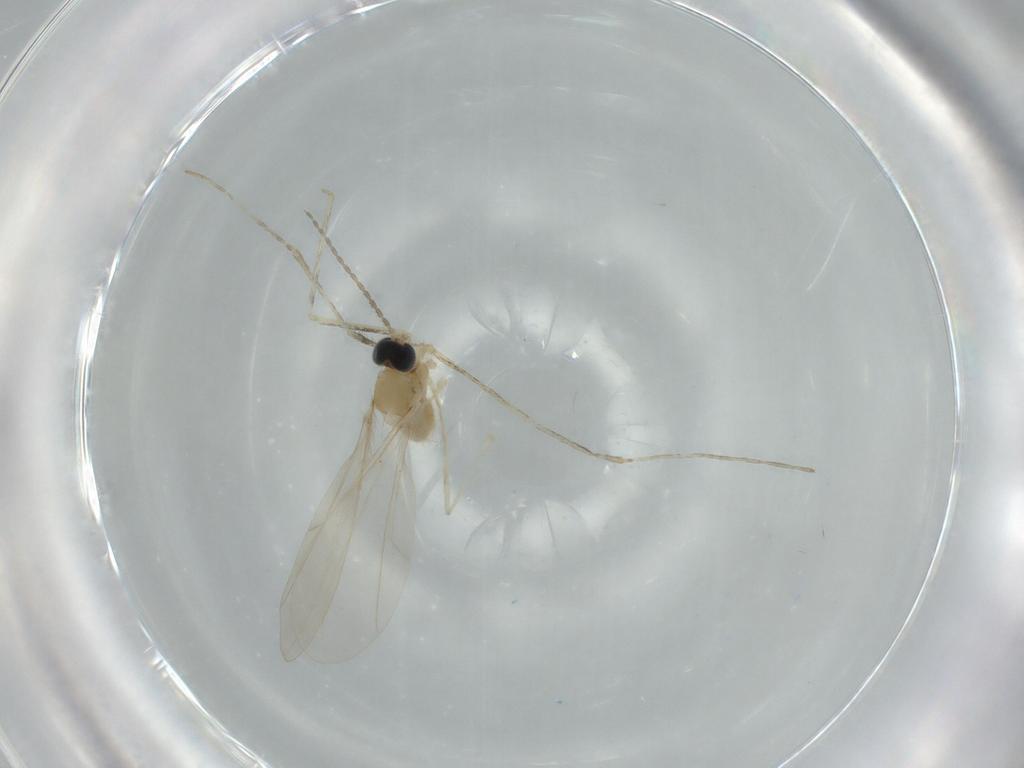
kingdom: Animalia
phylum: Arthropoda
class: Insecta
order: Diptera
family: Cecidomyiidae
